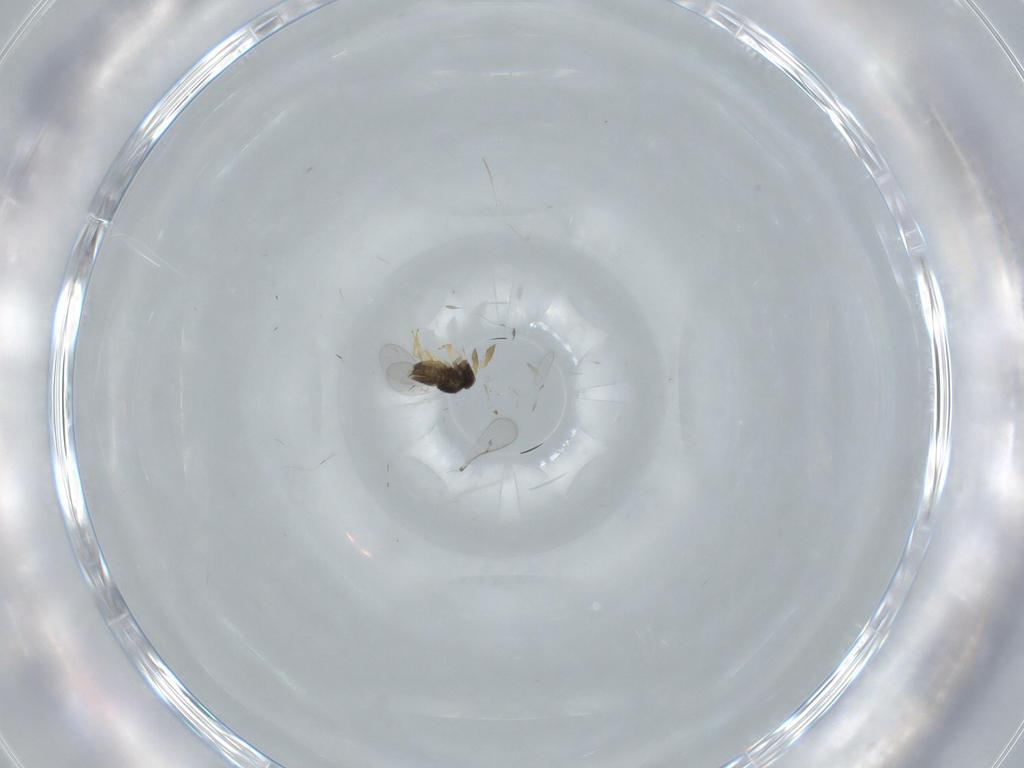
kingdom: Animalia
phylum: Arthropoda
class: Insecta
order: Hymenoptera
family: Scelionidae
